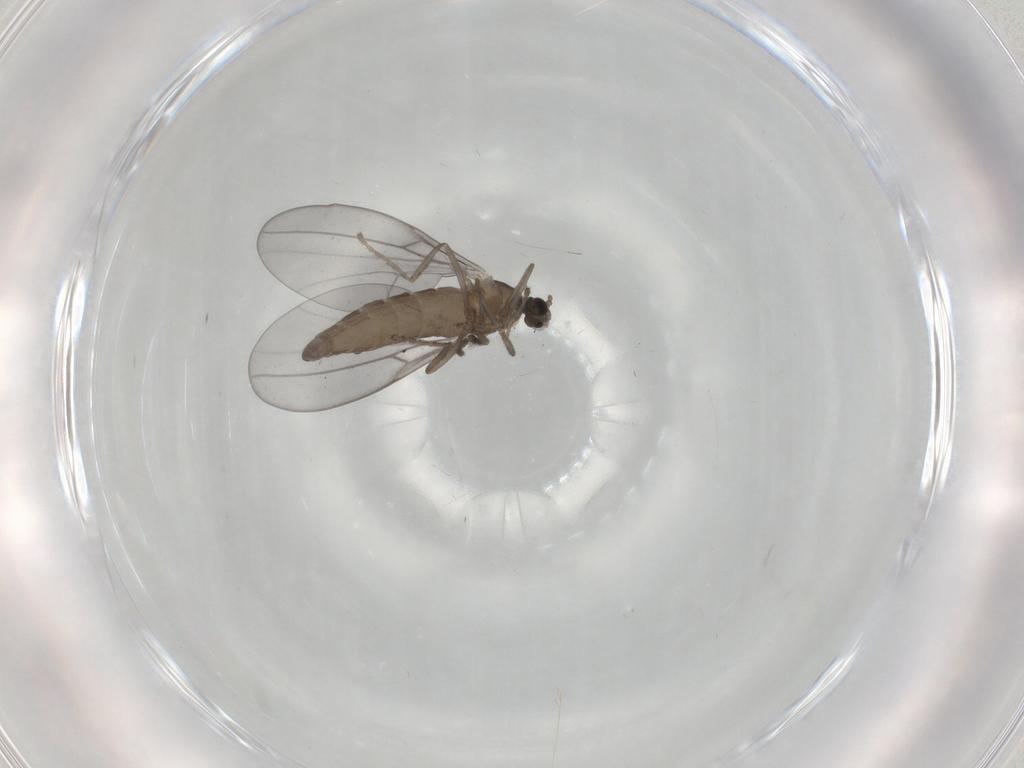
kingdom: Animalia
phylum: Arthropoda
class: Insecta
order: Diptera
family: Cecidomyiidae
